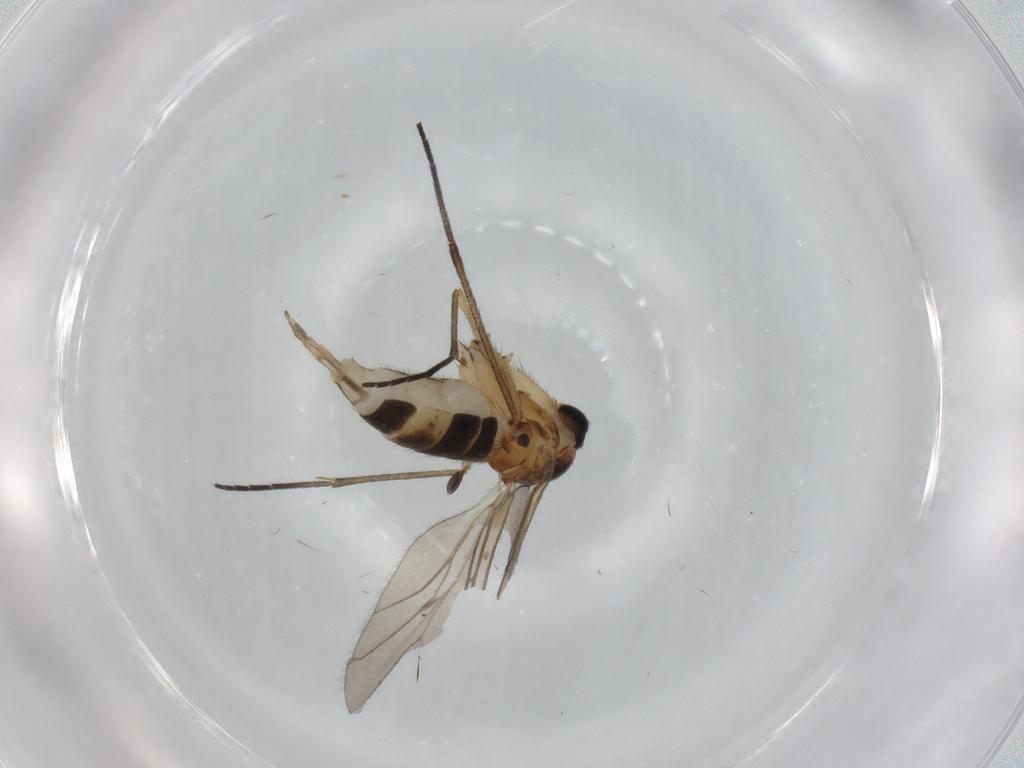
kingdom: Animalia
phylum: Arthropoda
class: Insecta
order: Diptera
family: Sciaridae
